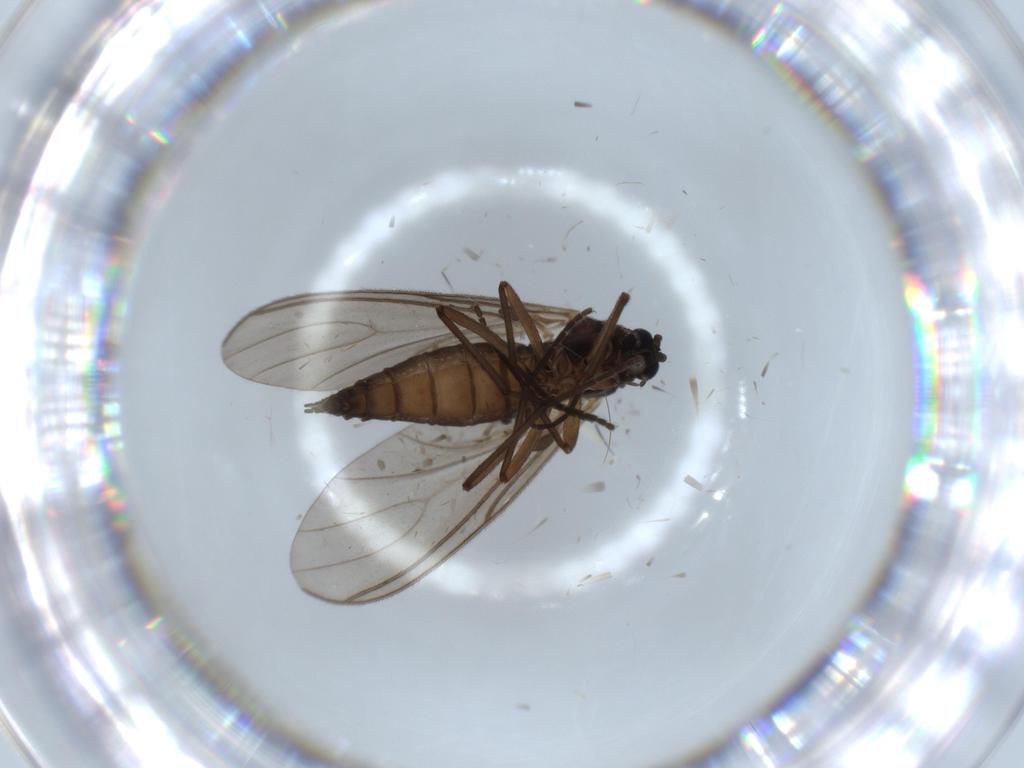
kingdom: Animalia
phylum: Arthropoda
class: Insecta
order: Diptera
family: Sciaridae
